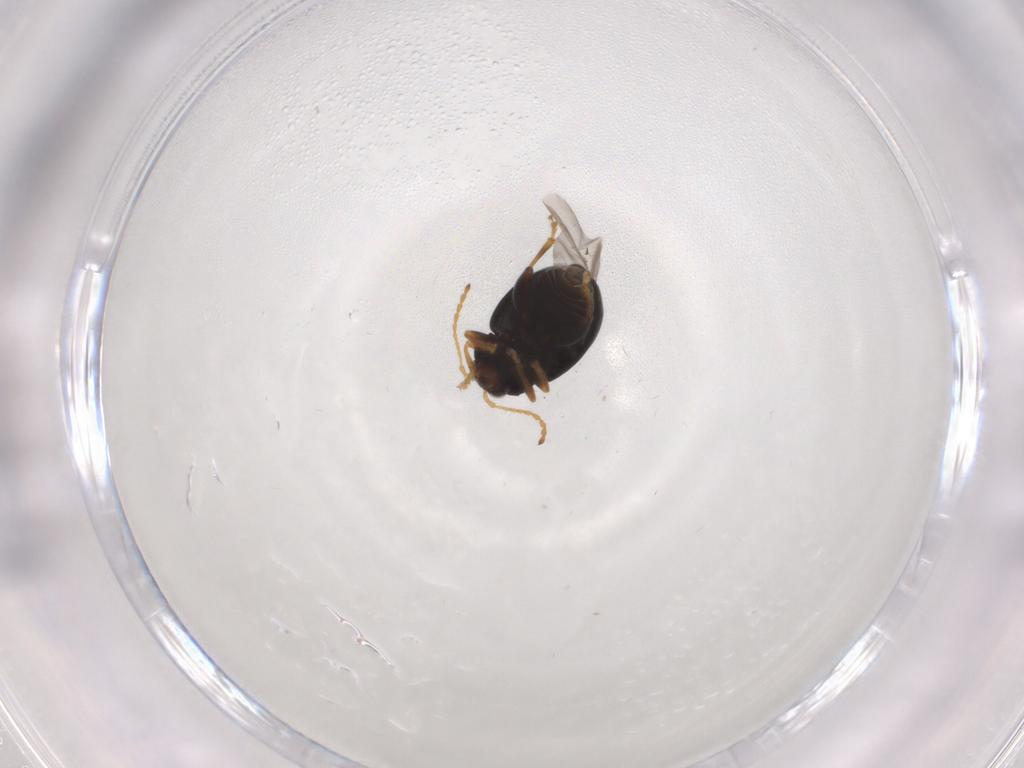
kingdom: Animalia
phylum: Arthropoda
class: Insecta
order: Coleoptera
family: Chrysomelidae
